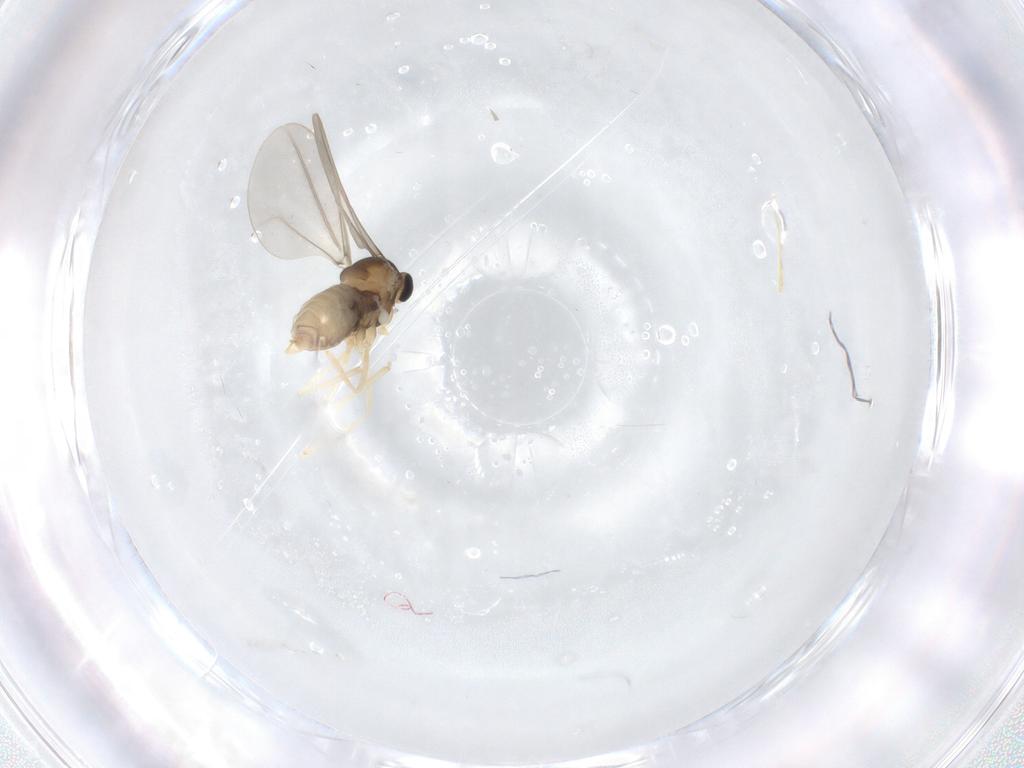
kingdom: Animalia
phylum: Arthropoda
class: Insecta
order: Diptera
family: Cecidomyiidae
